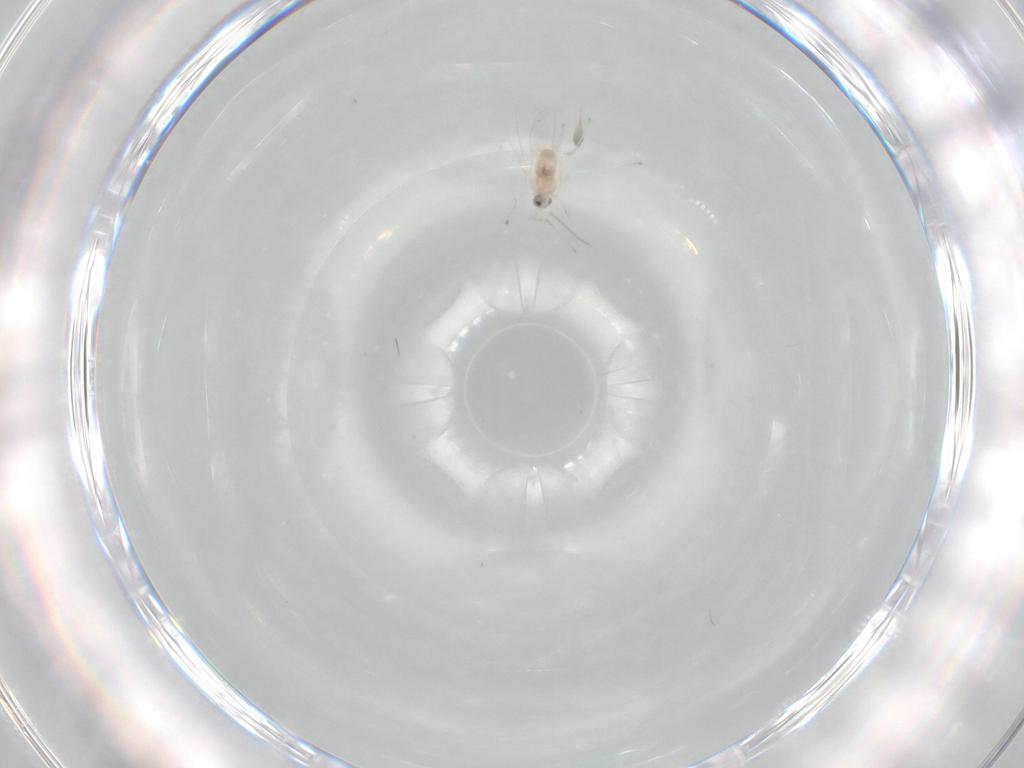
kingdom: Animalia
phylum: Arthropoda
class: Insecta
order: Diptera
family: Cecidomyiidae
